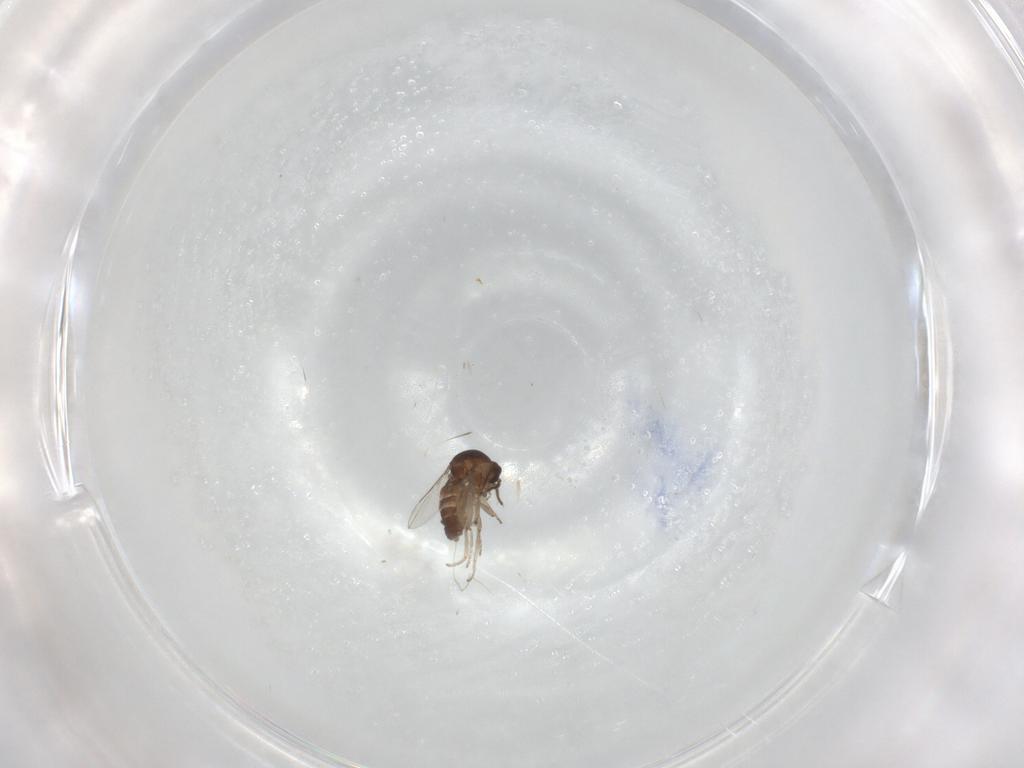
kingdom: Animalia
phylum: Arthropoda
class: Insecta
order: Diptera
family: Ceratopogonidae
